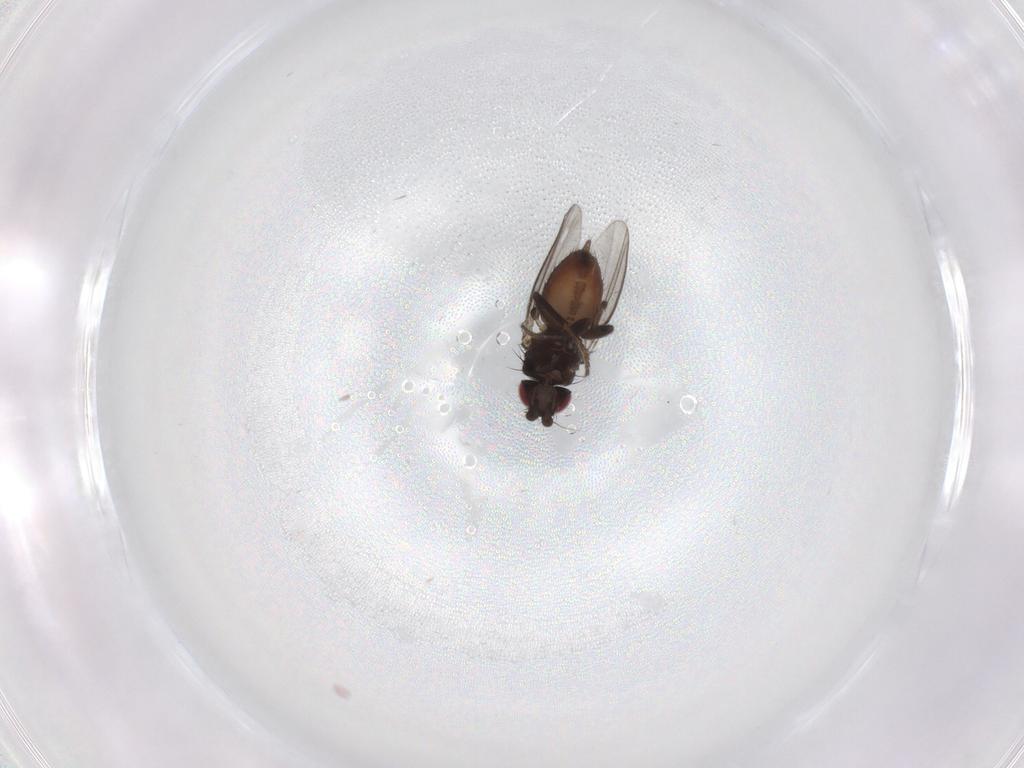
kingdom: Animalia
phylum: Arthropoda
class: Insecta
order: Diptera
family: Milichiidae
